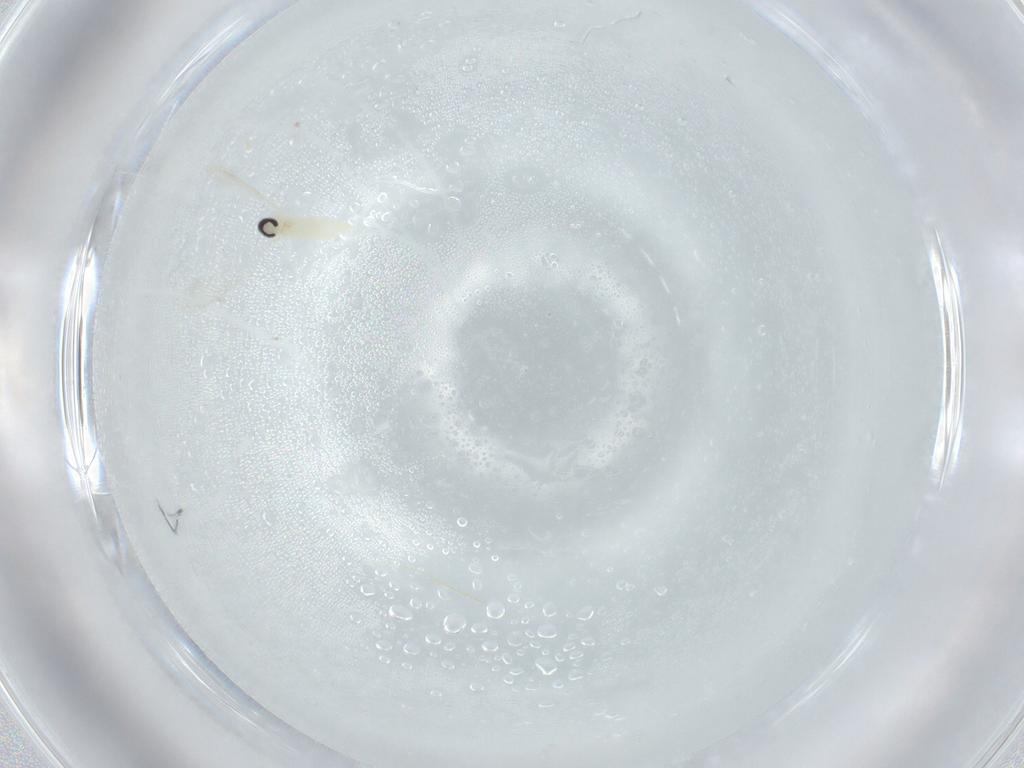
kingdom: Animalia
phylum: Arthropoda
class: Insecta
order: Diptera
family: Cecidomyiidae
